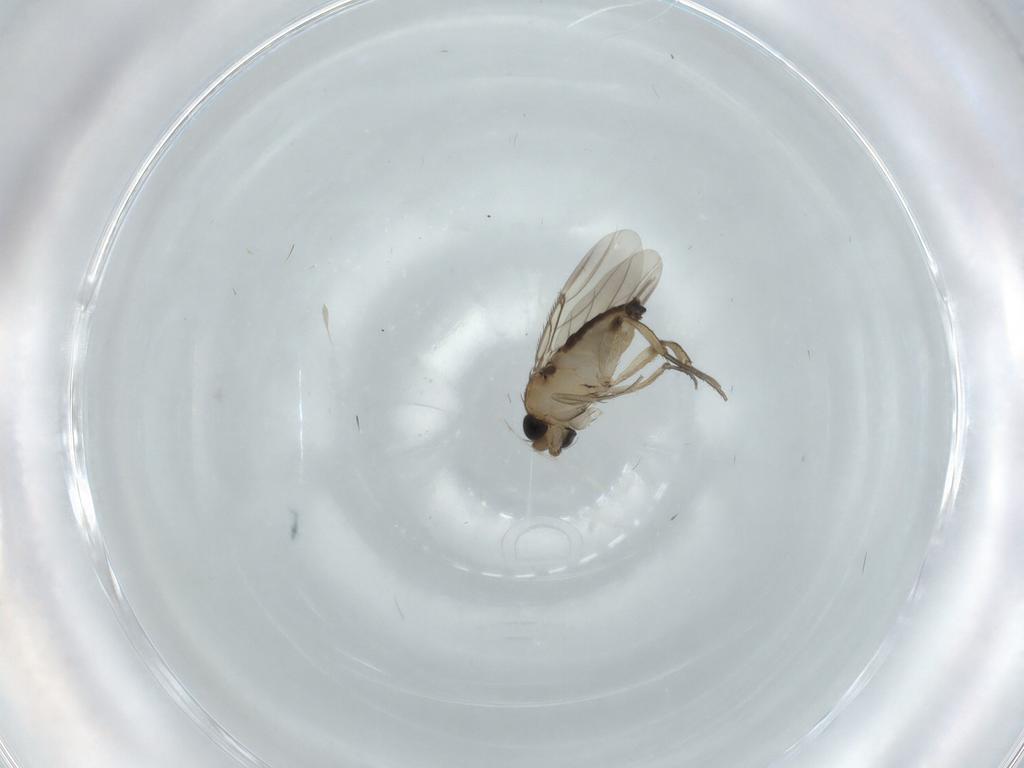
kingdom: Animalia
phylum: Arthropoda
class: Insecta
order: Diptera
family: Phoridae
